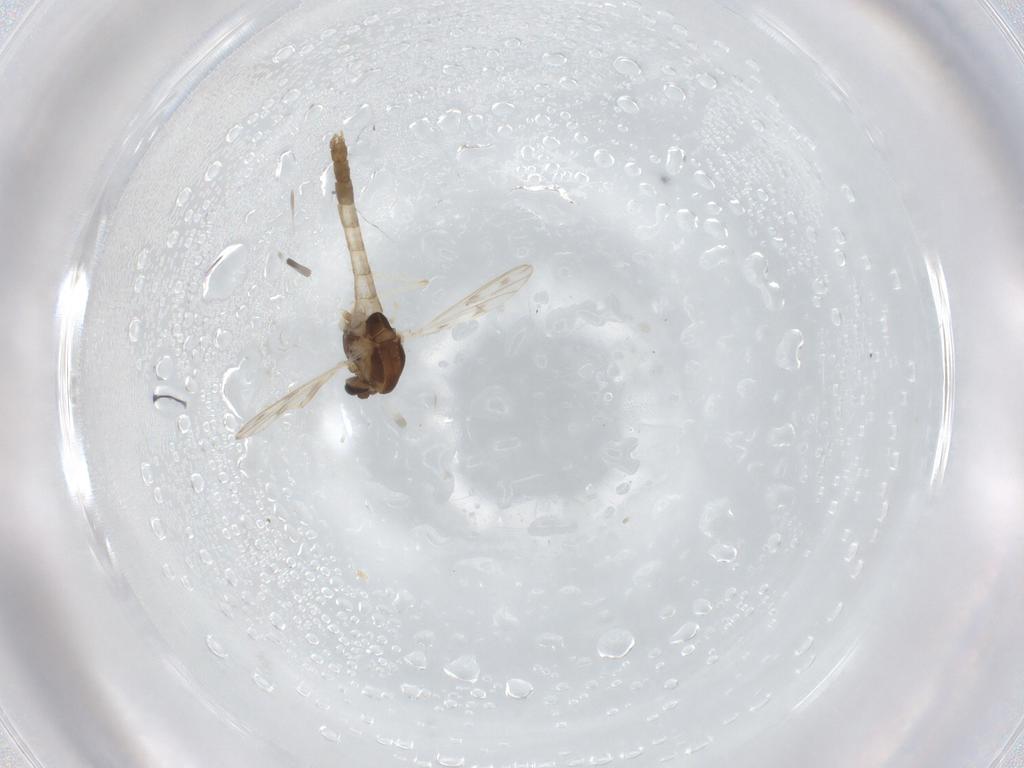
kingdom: Animalia
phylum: Arthropoda
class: Insecta
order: Diptera
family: Chironomidae
